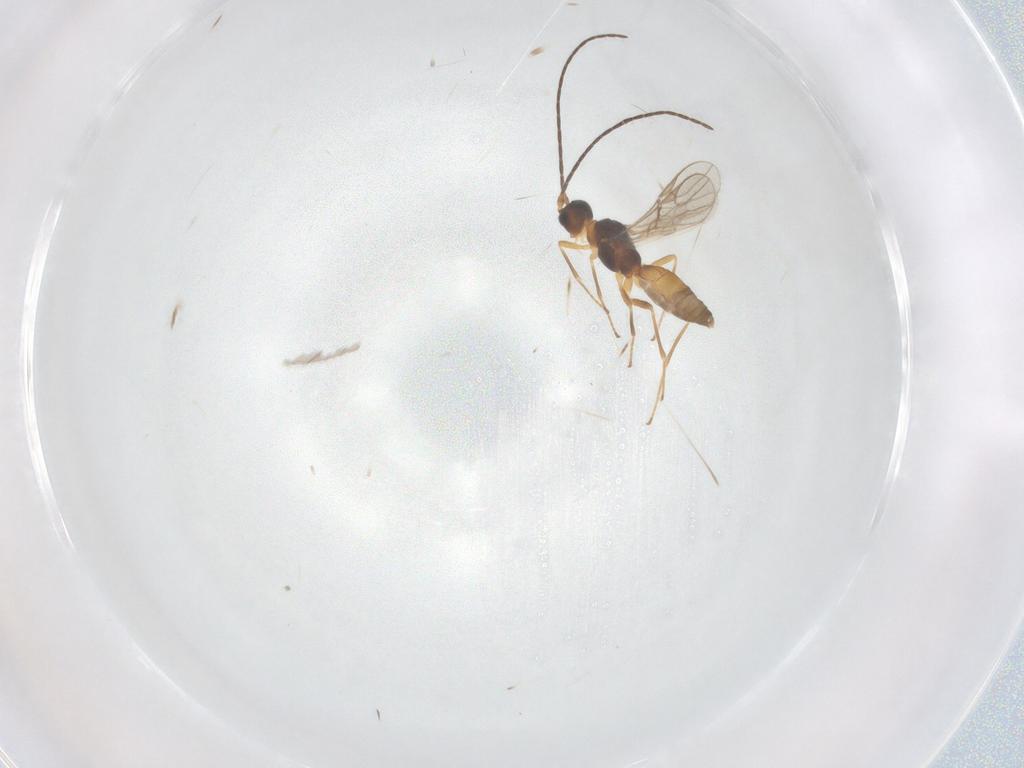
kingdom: Animalia
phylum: Arthropoda
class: Insecta
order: Hymenoptera
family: Braconidae
